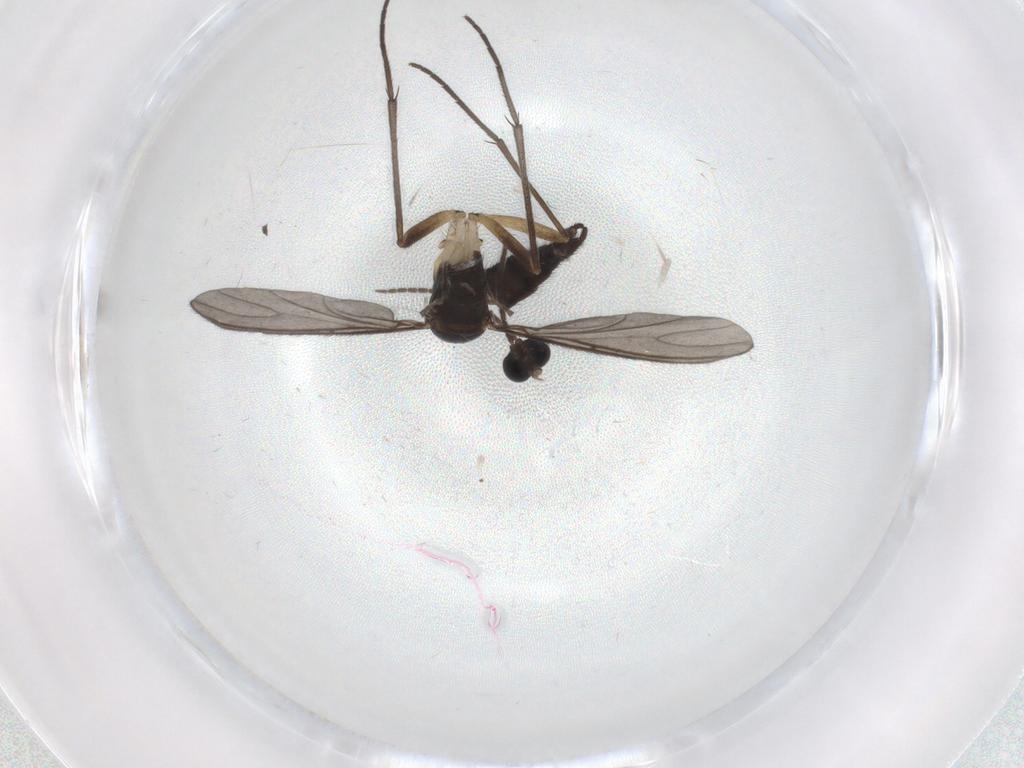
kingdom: Animalia
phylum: Arthropoda
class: Insecta
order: Diptera
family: Sciaridae
